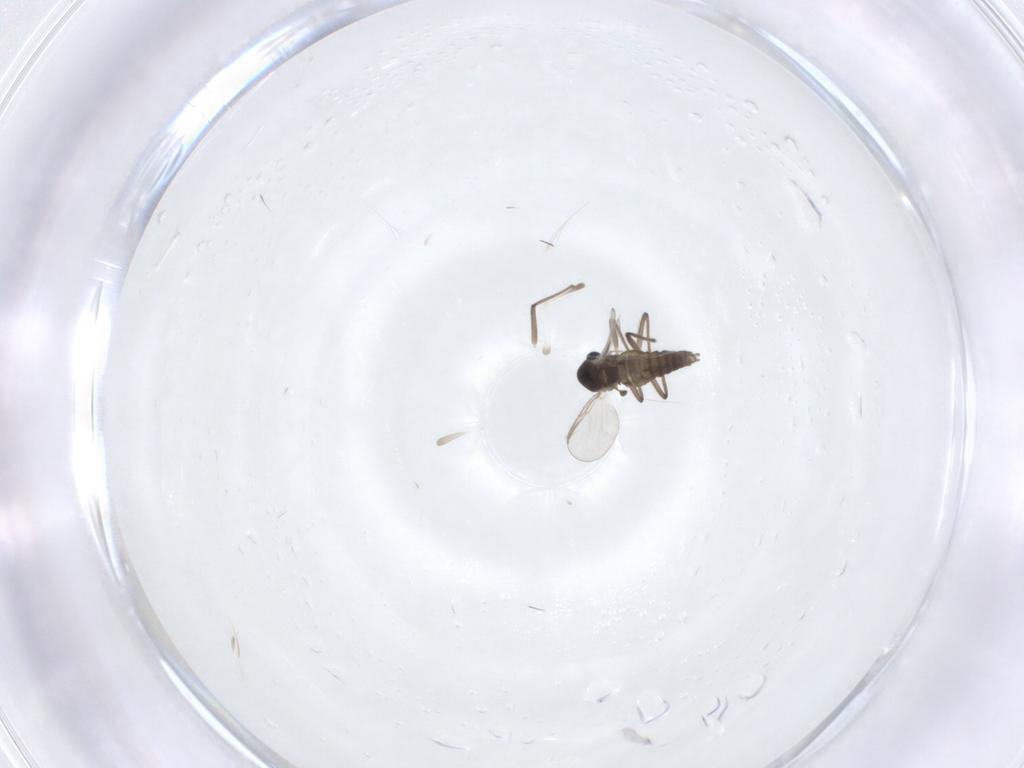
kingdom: Animalia
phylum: Arthropoda
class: Insecta
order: Diptera
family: Chironomidae
